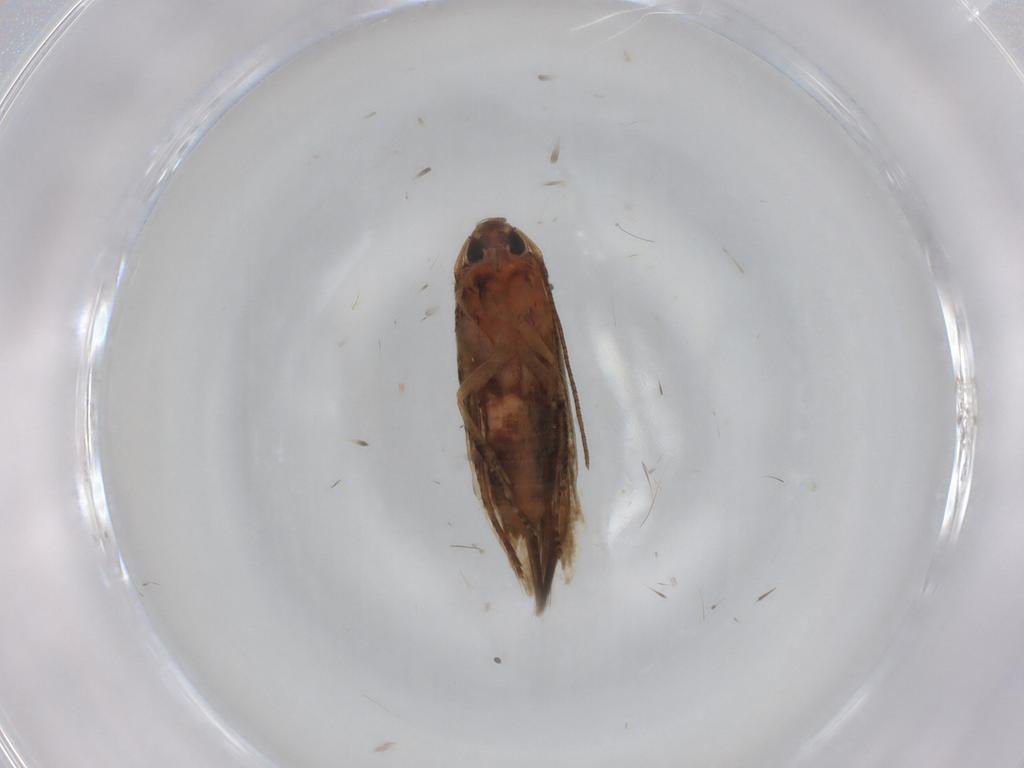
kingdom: Animalia
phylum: Arthropoda
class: Insecta
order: Lepidoptera
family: Cosmopterigidae
